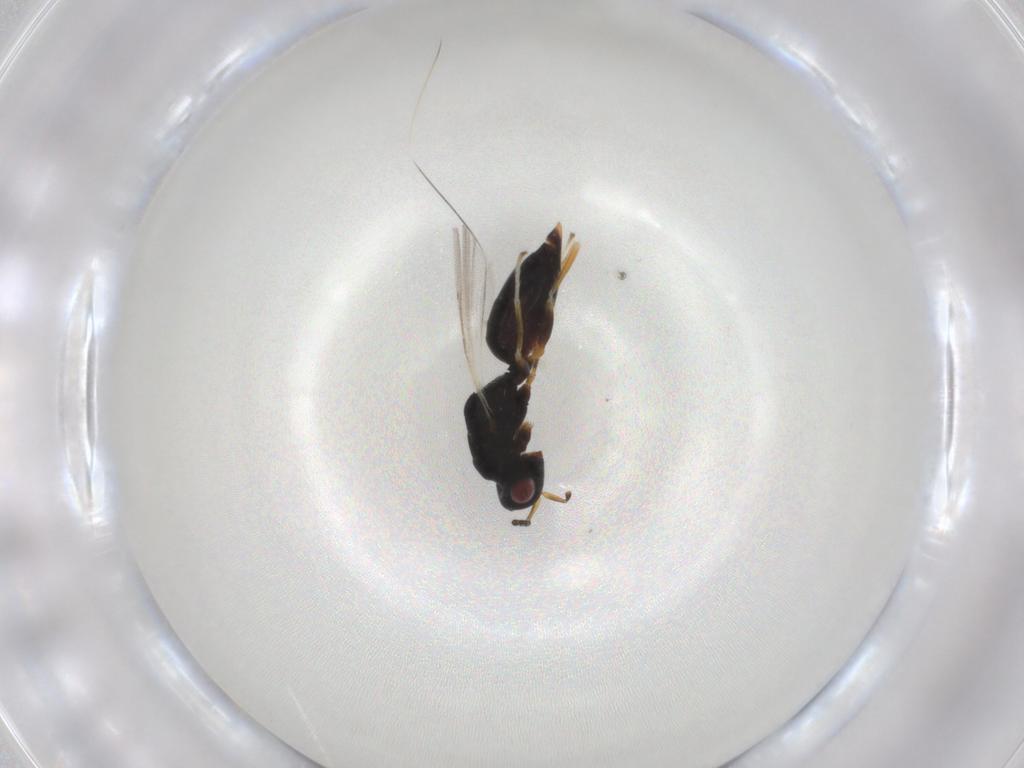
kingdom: Animalia
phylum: Arthropoda
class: Insecta
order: Hymenoptera
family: Eurytomidae
